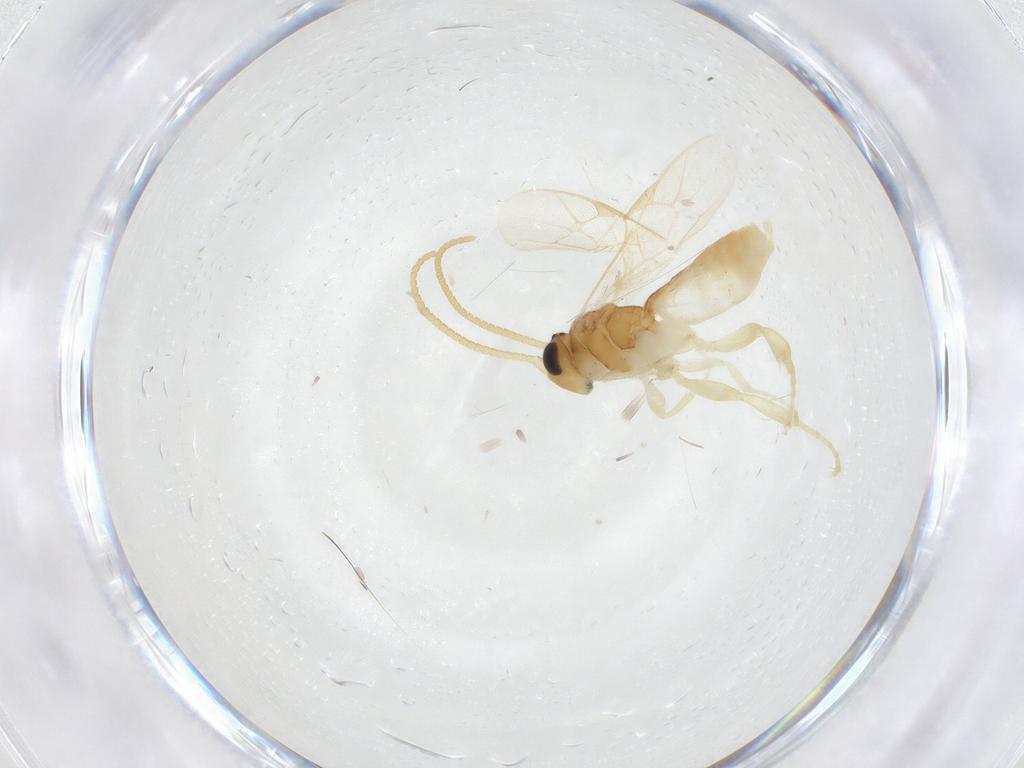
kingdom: Animalia
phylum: Arthropoda
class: Insecta
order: Hymenoptera
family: Ichneumonidae
